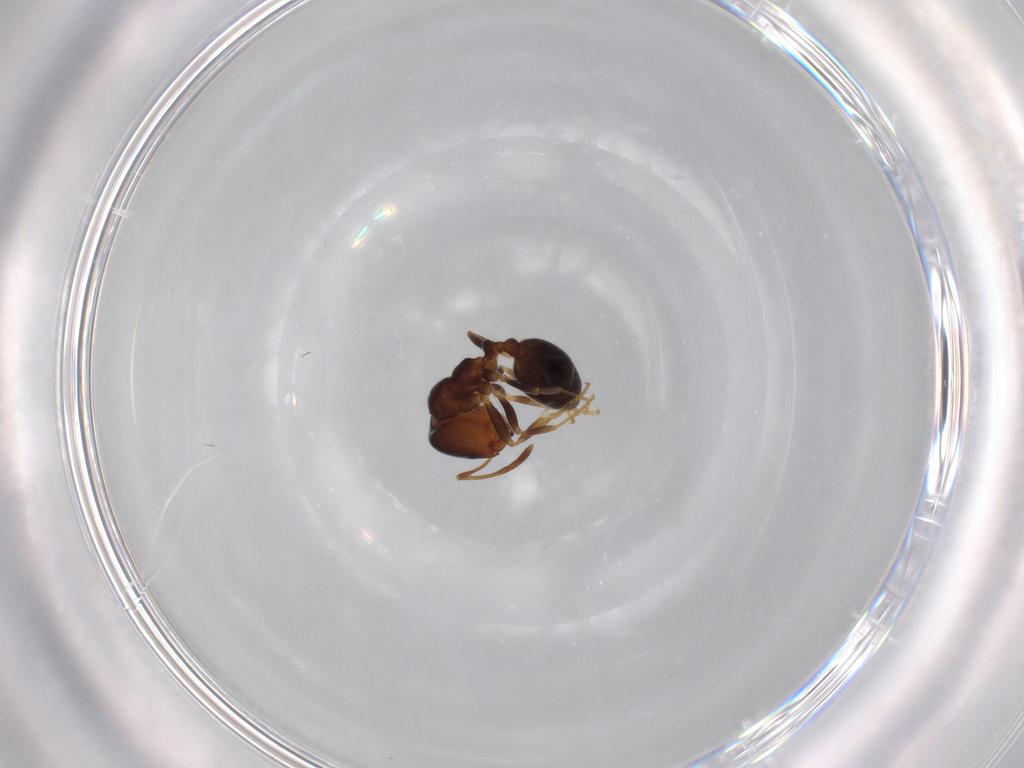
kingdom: Animalia
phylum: Arthropoda
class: Insecta
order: Hymenoptera
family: Formicidae
